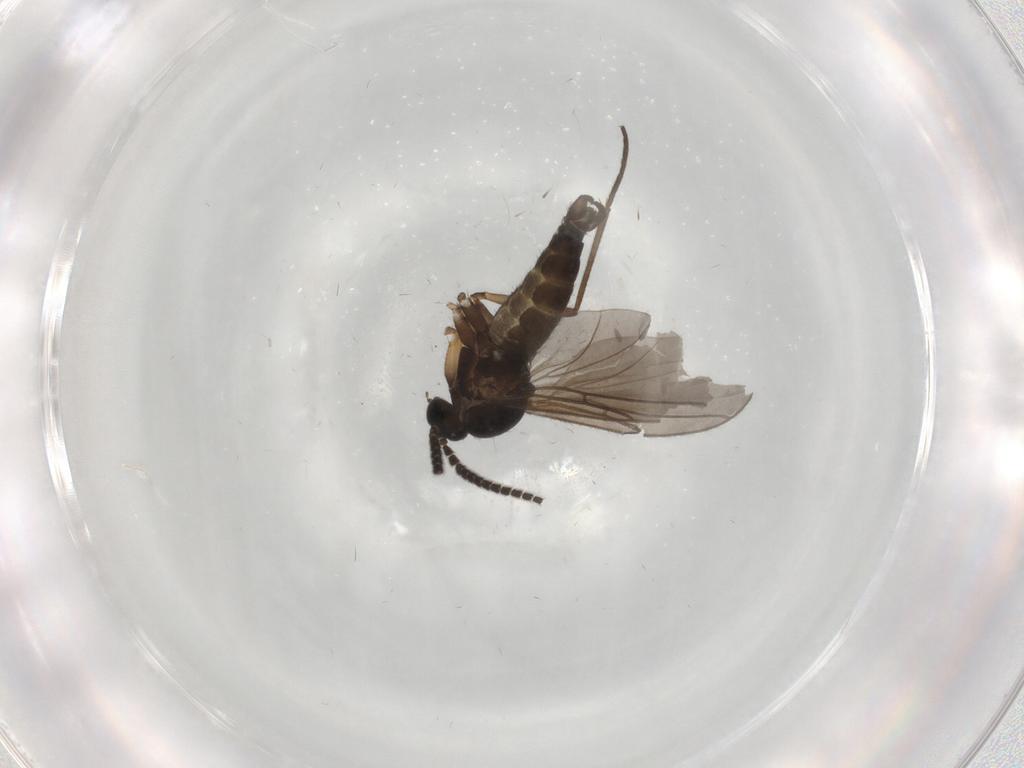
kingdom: Animalia
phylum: Arthropoda
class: Insecta
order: Diptera
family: Sciaridae
